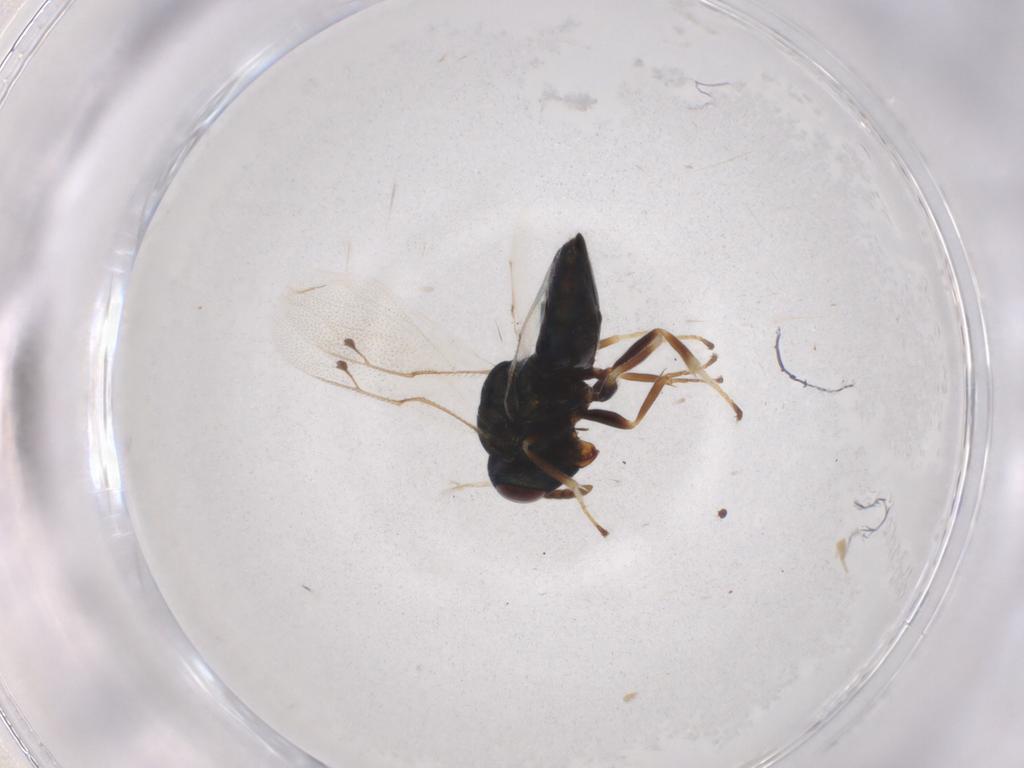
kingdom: Animalia
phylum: Arthropoda
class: Insecta
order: Hymenoptera
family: Pteromalidae
